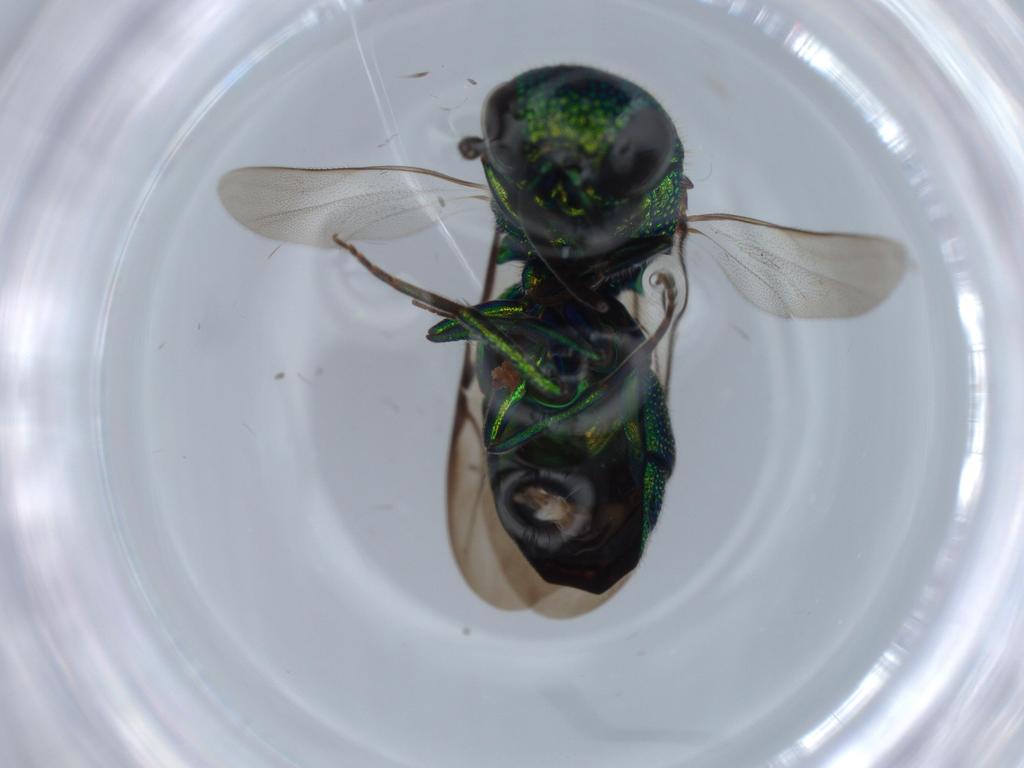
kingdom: Animalia
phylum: Arthropoda
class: Insecta
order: Hymenoptera
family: Chrysididae
